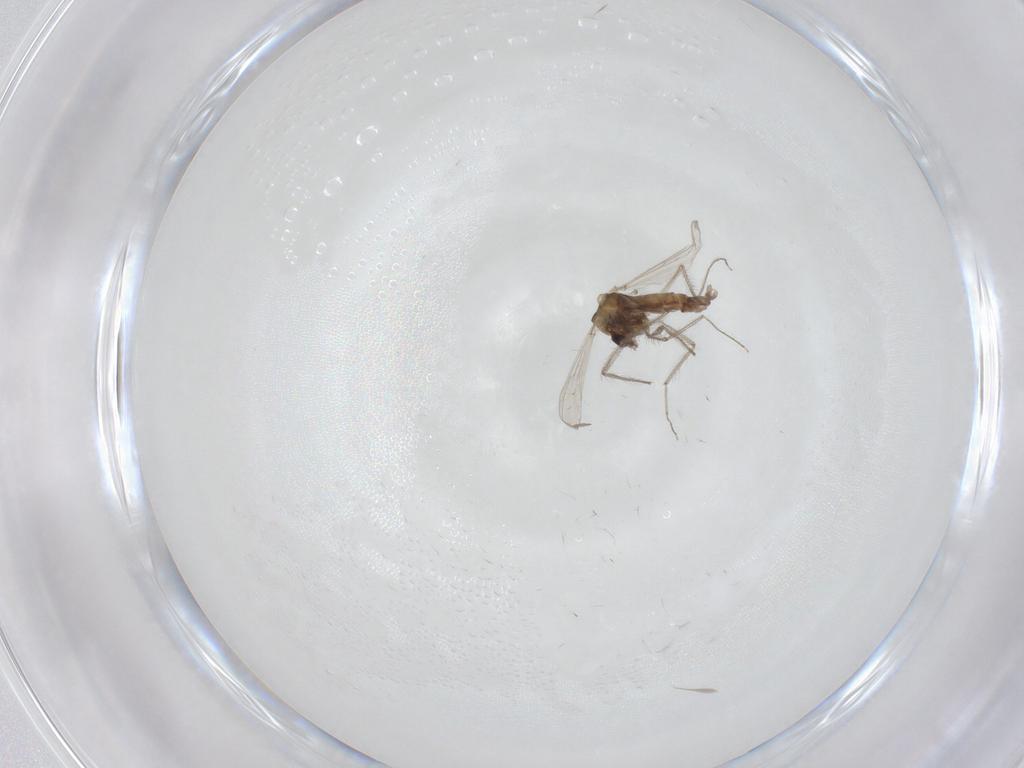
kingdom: Animalia
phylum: Arthropoda
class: Insecta
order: Diptera
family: Chironomidae
